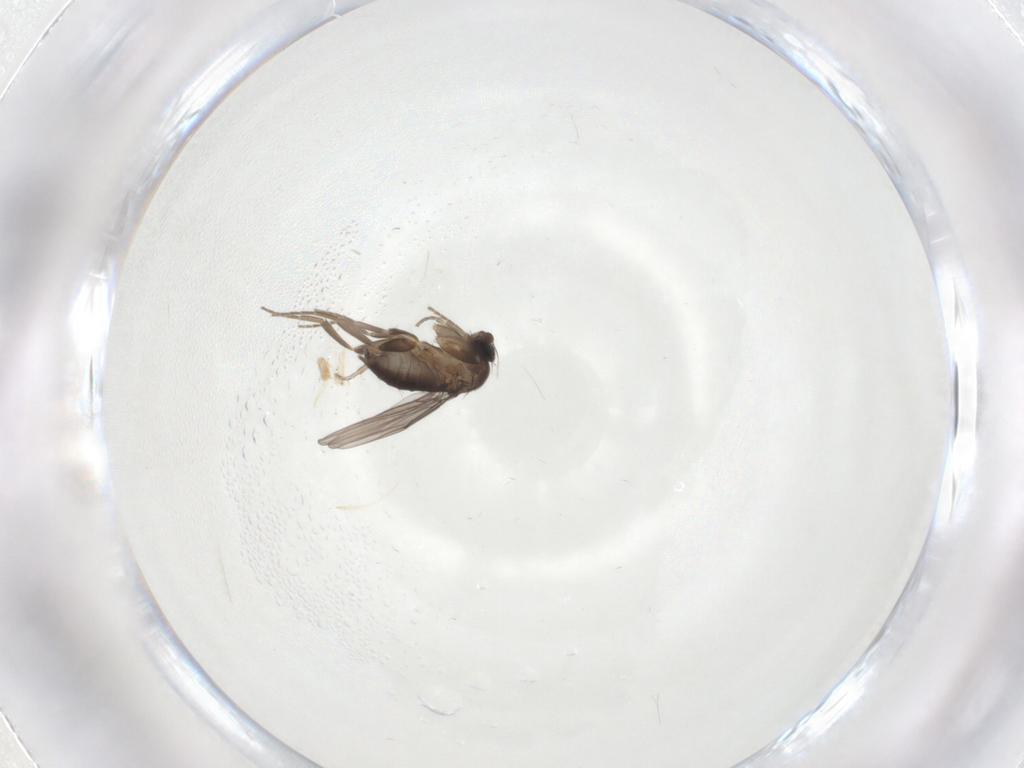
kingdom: Animalia
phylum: Arthropoda
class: Insecta
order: Diptera
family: Phoridae
